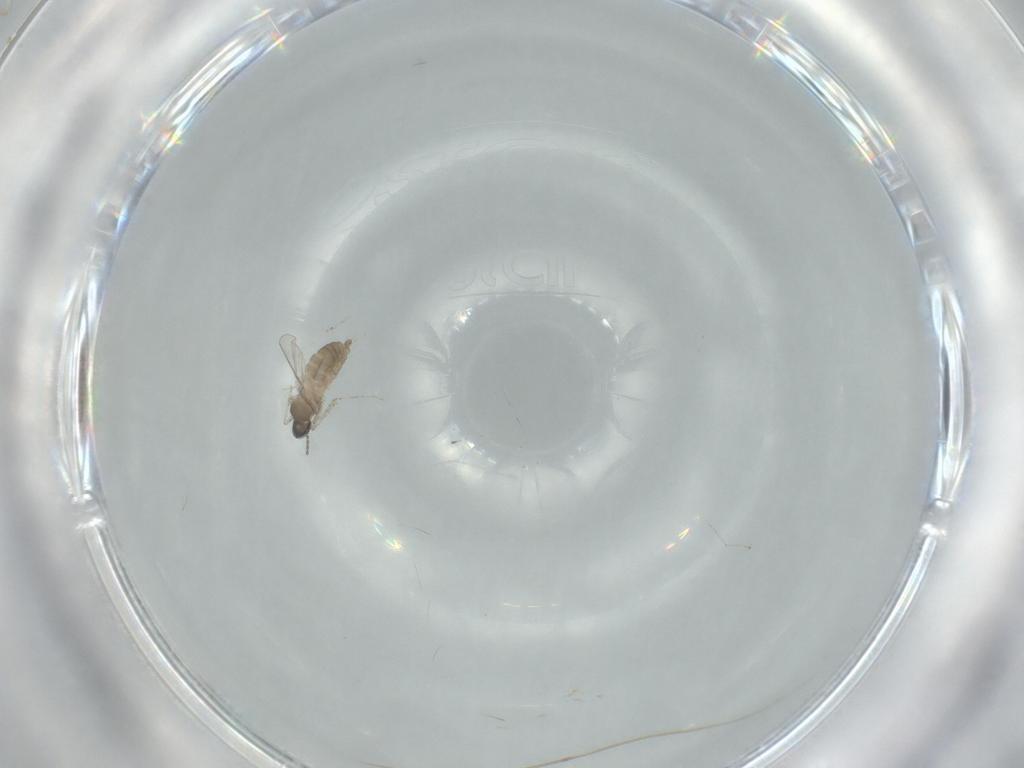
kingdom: Animalia
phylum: Arthropoda
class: Insecta
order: Diptera
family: Cecidomyiidae
